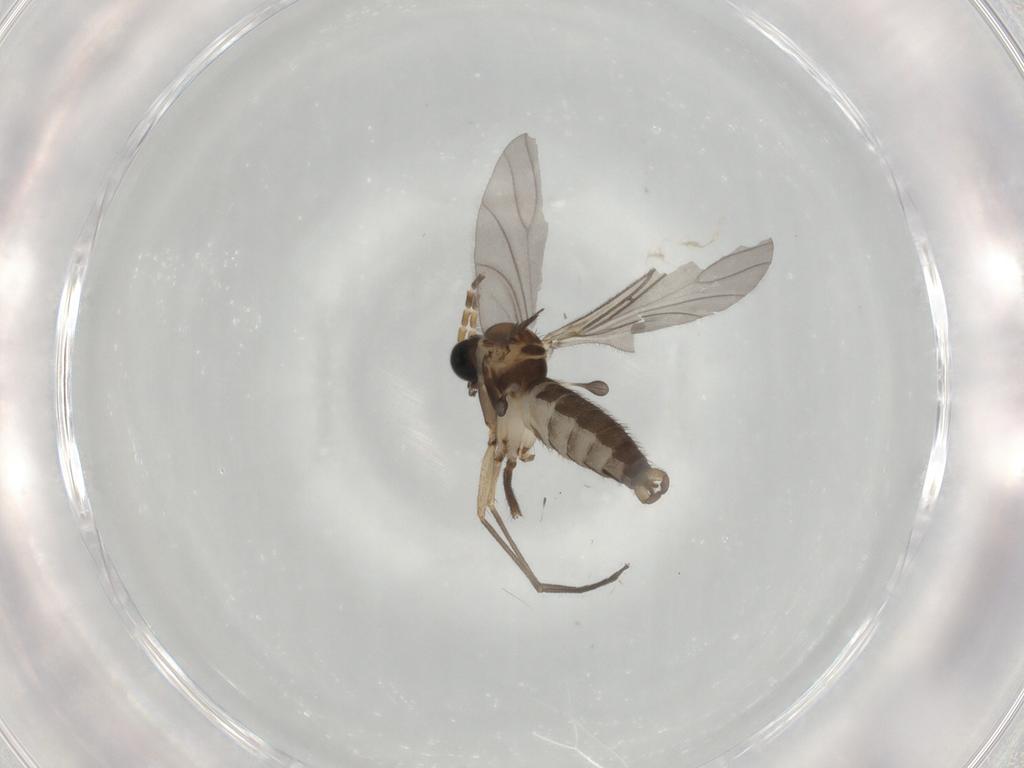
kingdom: Animalia
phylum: Arthropoda
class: Insecta
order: Diptera
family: Sciaridae
